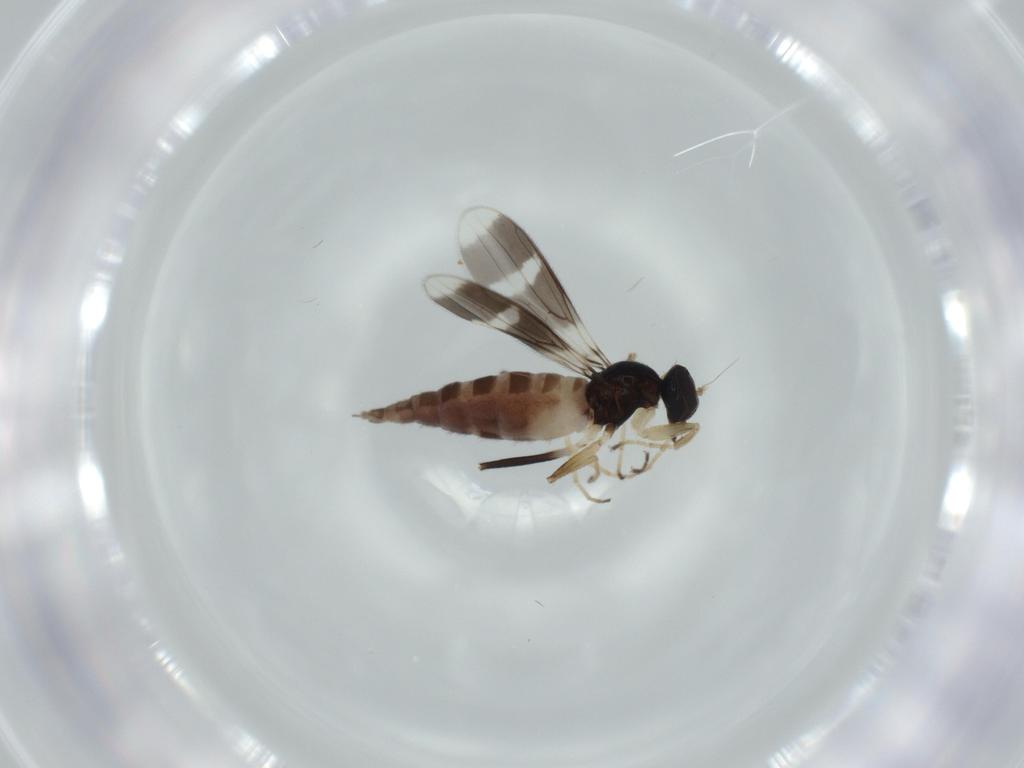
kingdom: Animalia
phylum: Arthropoda
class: Insecta
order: Diptera
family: Hybotidae
